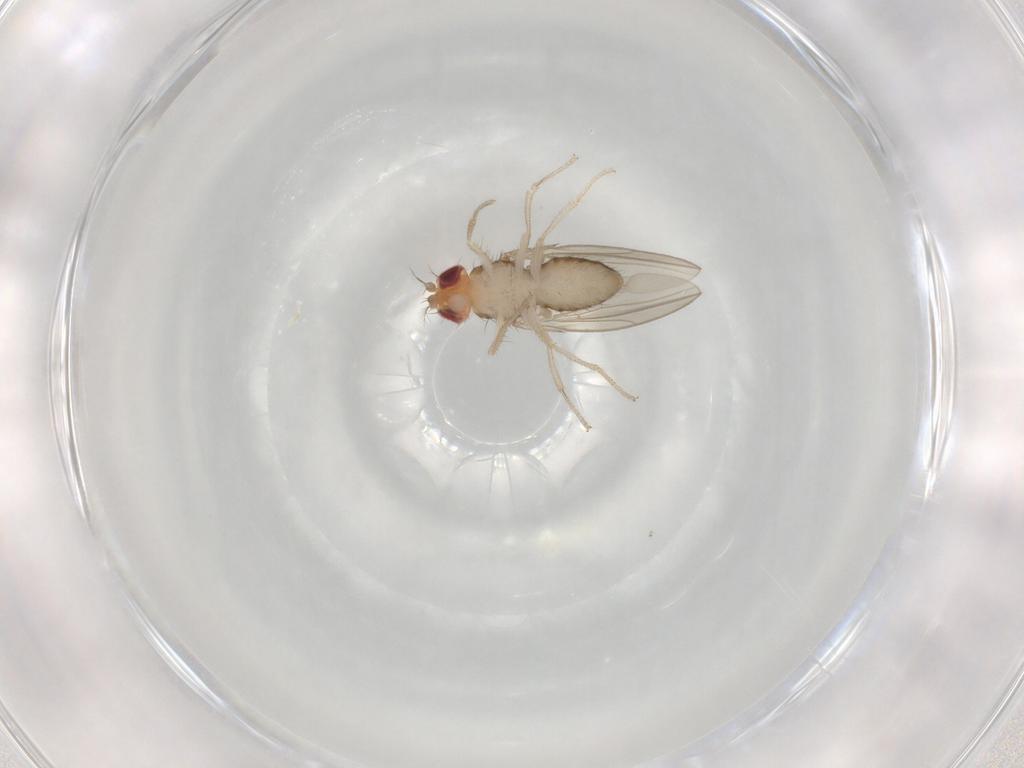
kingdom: Animalia
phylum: Arthropoda
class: Insecta
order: Diptera
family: Drosophilidae
